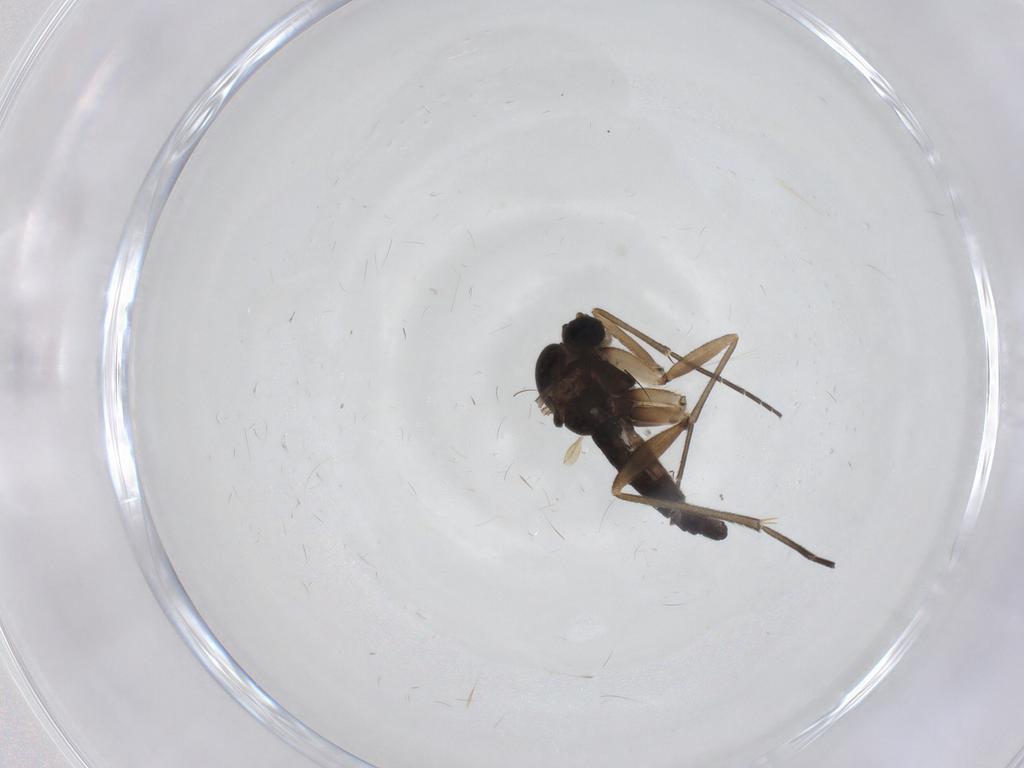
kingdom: Animalia
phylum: Arthropoda
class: Insecta
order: Diptera
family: Sciaridae
